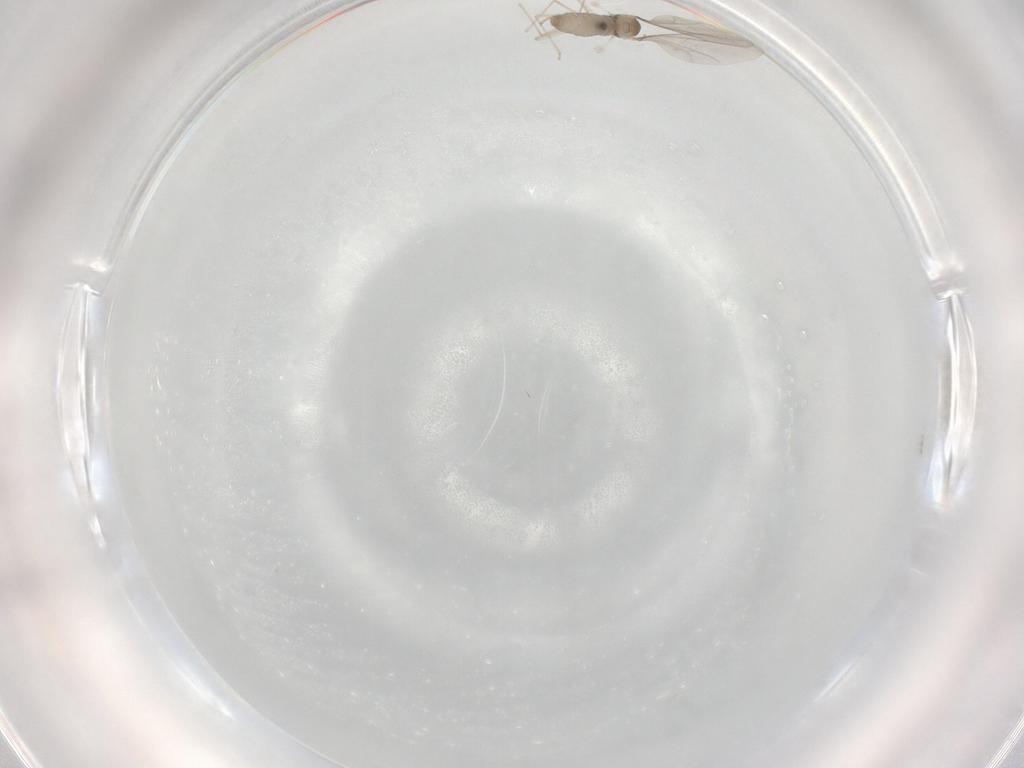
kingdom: Animalia
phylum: Arthropoda
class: Insecta
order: Diptera
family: Cecidomyiidae
